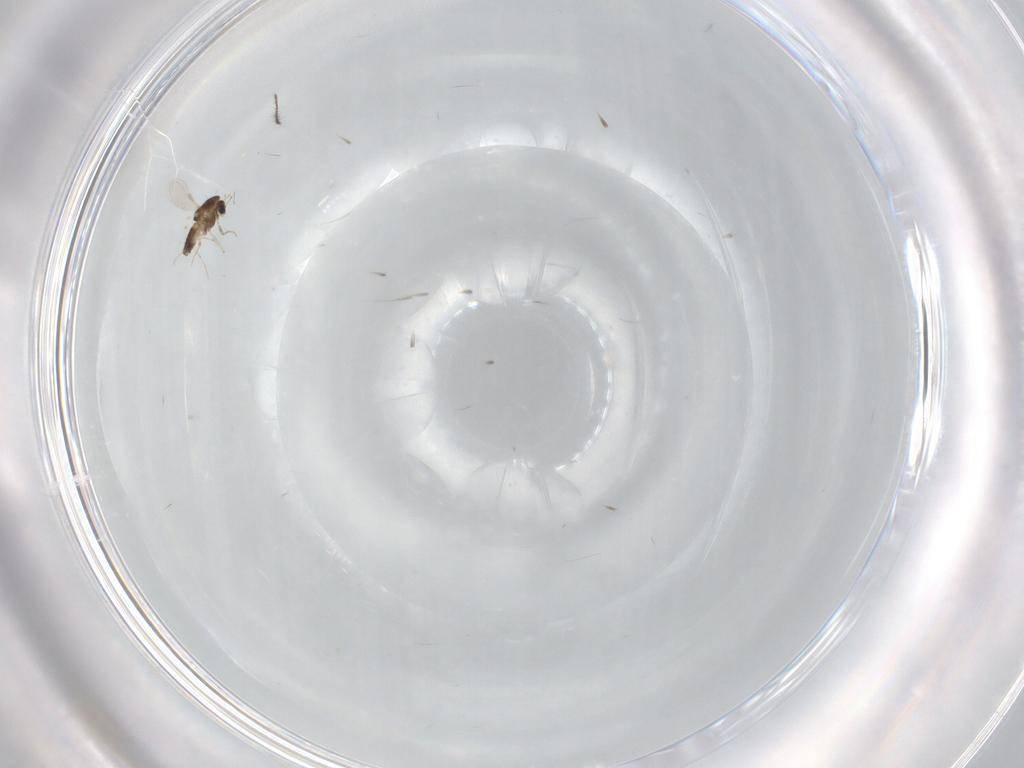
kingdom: Animalia
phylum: Arthropoda
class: Insecta
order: Diptera
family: Chironomidae
